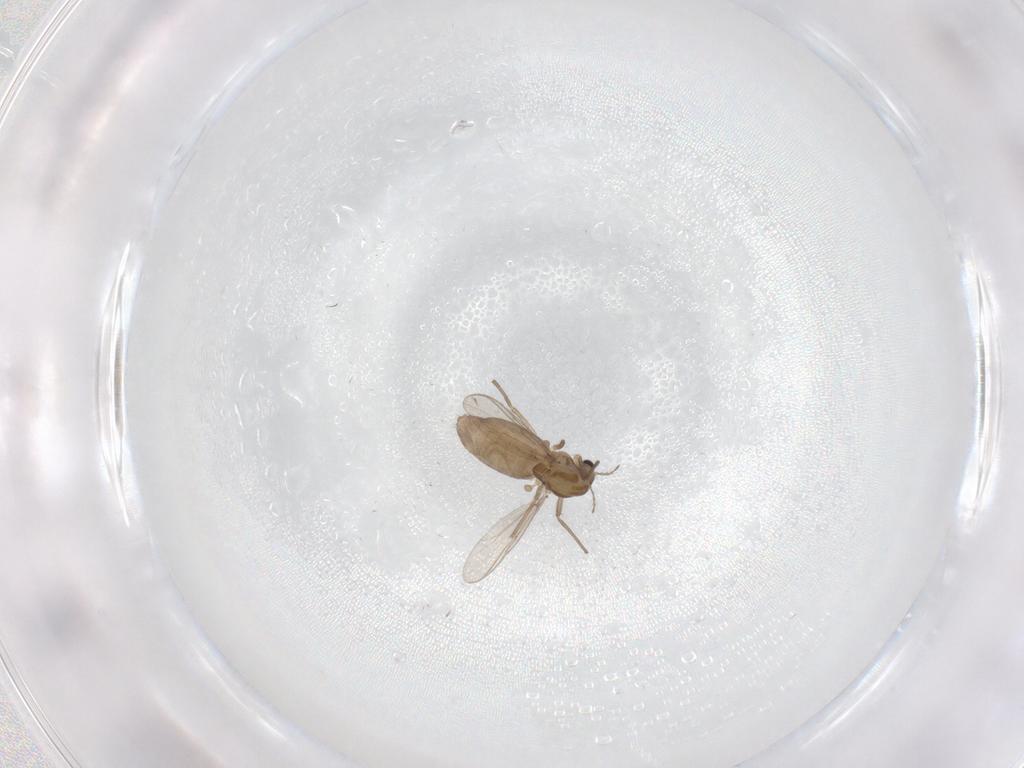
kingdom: Animalia
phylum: Arthropoda
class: Insecta
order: Diptera
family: Chironomidae
